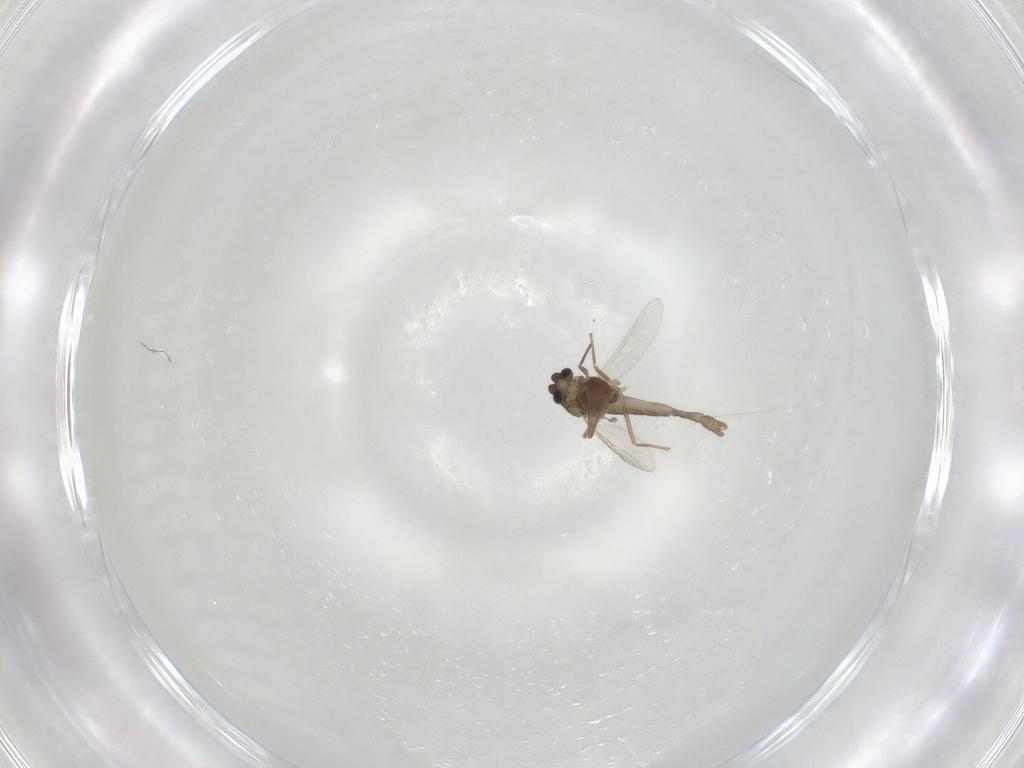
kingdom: Animalia
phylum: Arthropoda
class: Insecta
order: Diptera
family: Chironomidae
